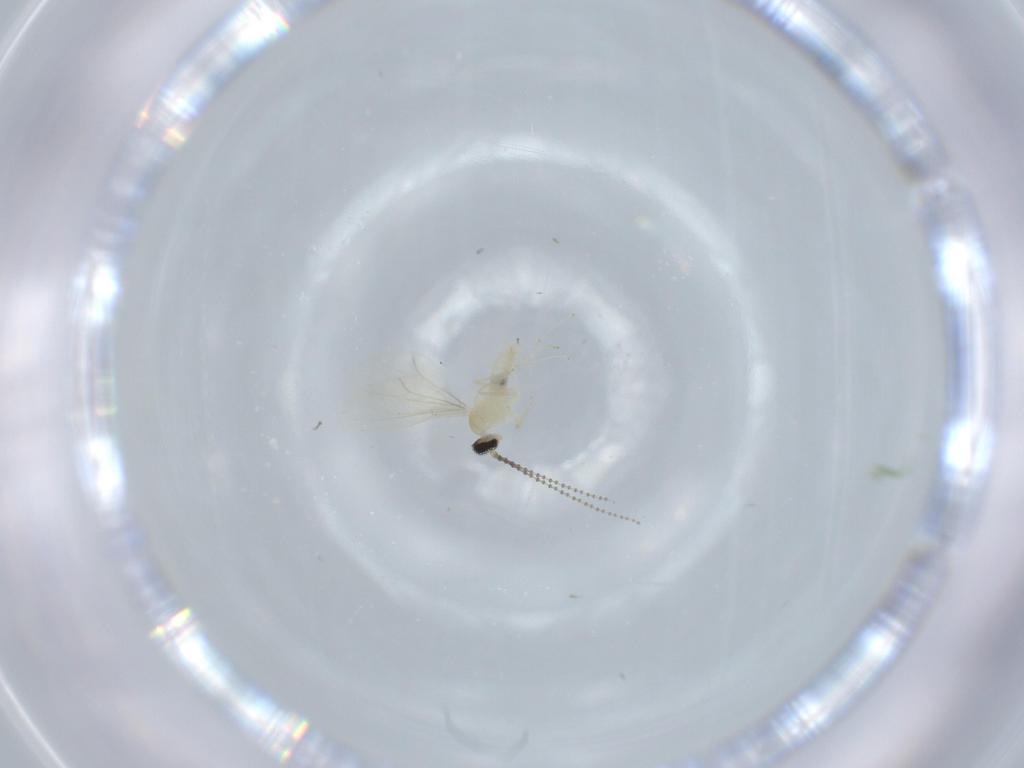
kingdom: Animalia
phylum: Arthropoda
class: Insecta
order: Diptera
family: Cecidomyiidae
